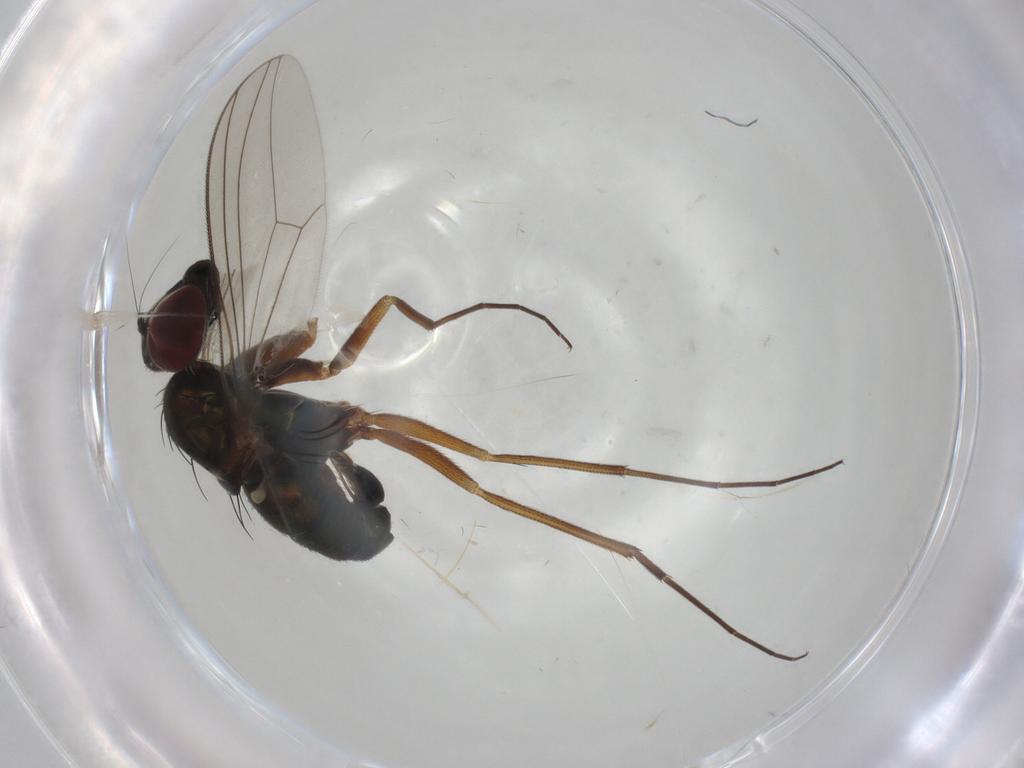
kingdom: Animalia
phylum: Arthropoda
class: Insecta
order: Diptera
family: Dolichopodidae
